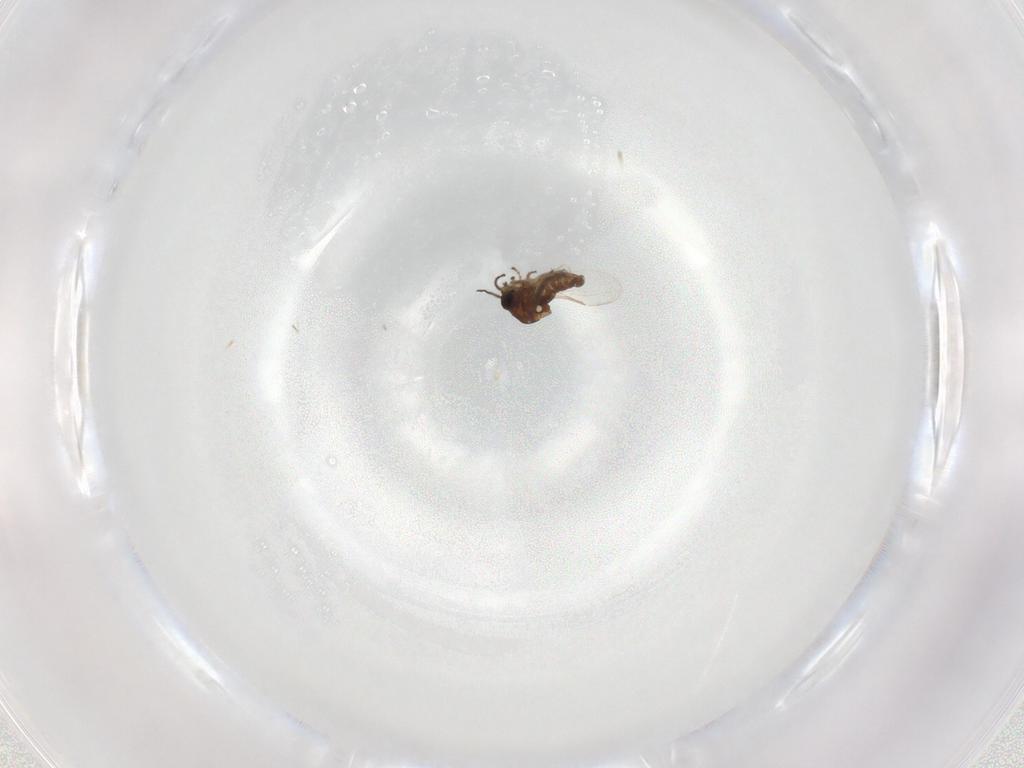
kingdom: Animalia
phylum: Arthropoda
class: Insecta
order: Diptera
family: Ceratopogonidae
